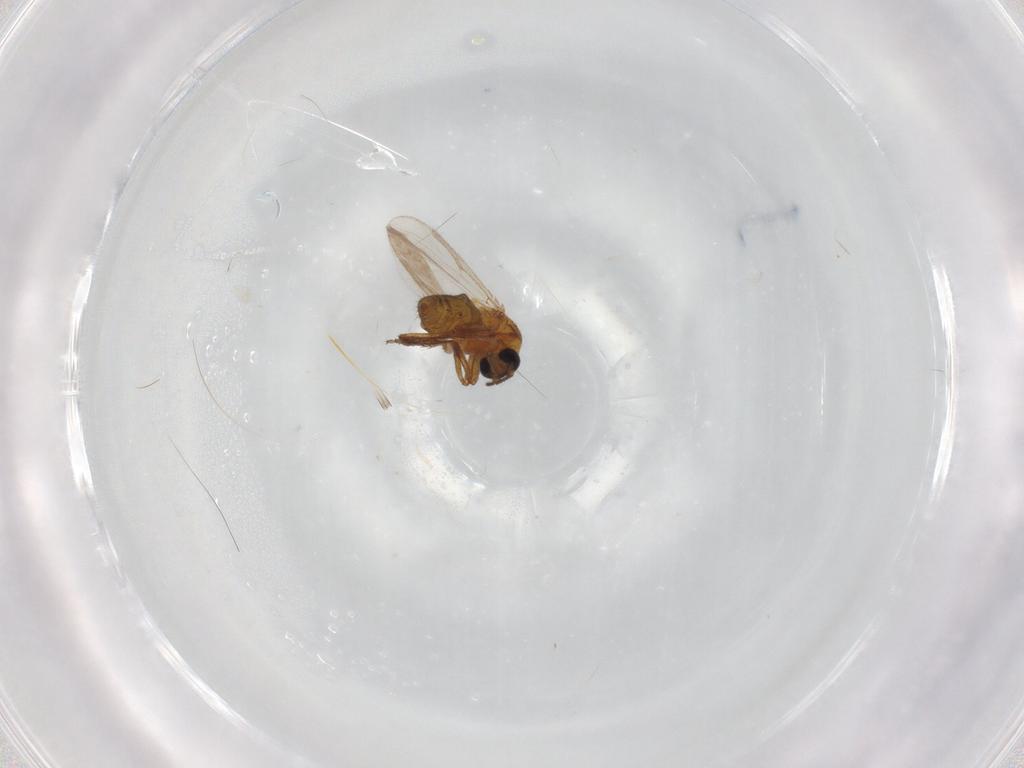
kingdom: Animalia
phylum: Arthropoda
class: Insecta
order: Diptera
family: Ceratopogonidae
